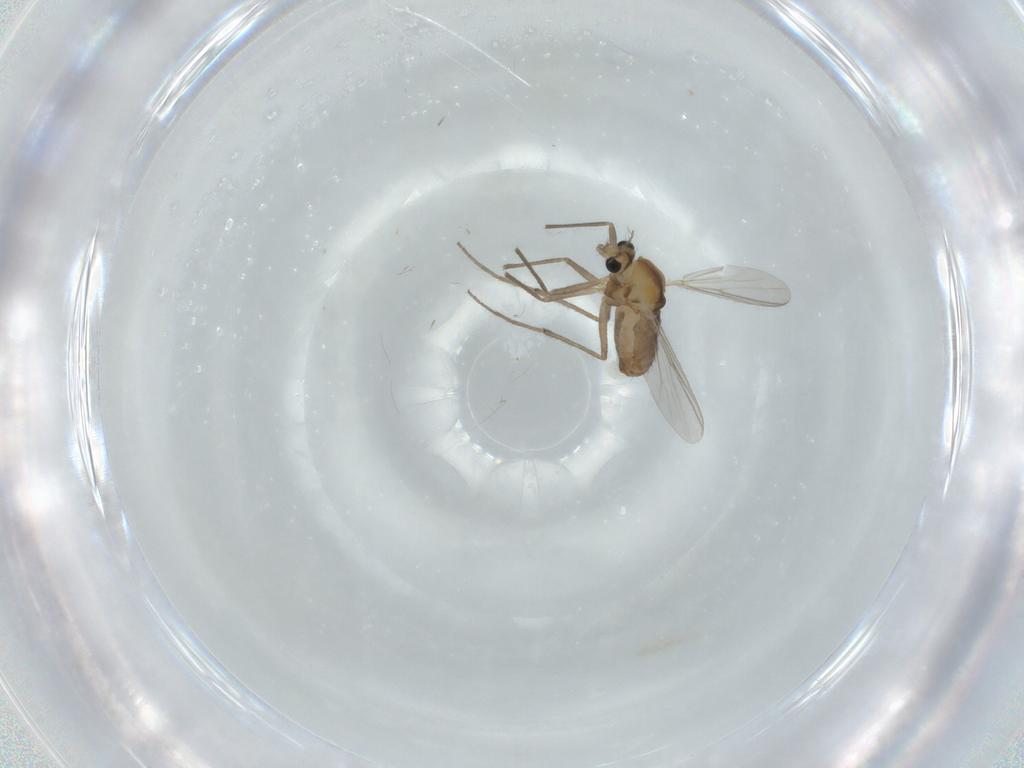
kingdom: Animalia
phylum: Arthropoda
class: Insecta
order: Diptera
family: Chironomidae
